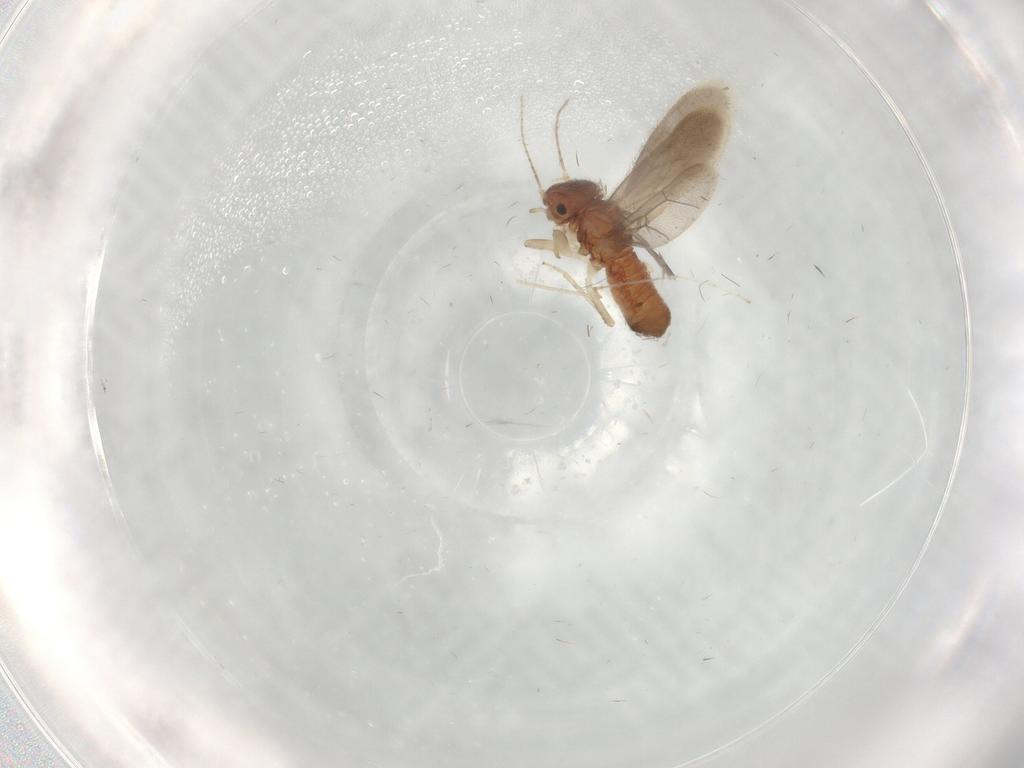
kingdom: Animalia
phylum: Arthropoda
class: Insecta
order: Psocodea
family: Archipsocidae
